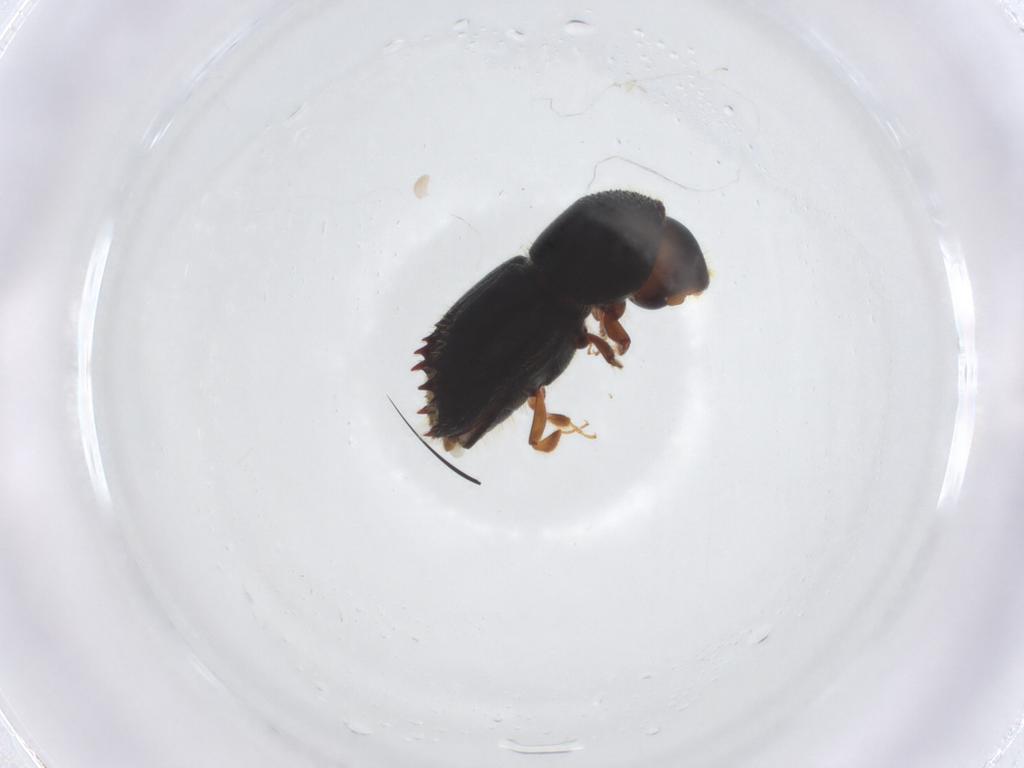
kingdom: Animalia
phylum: Arthropoda
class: Insecta
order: Coleoptera
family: Curculionidae
